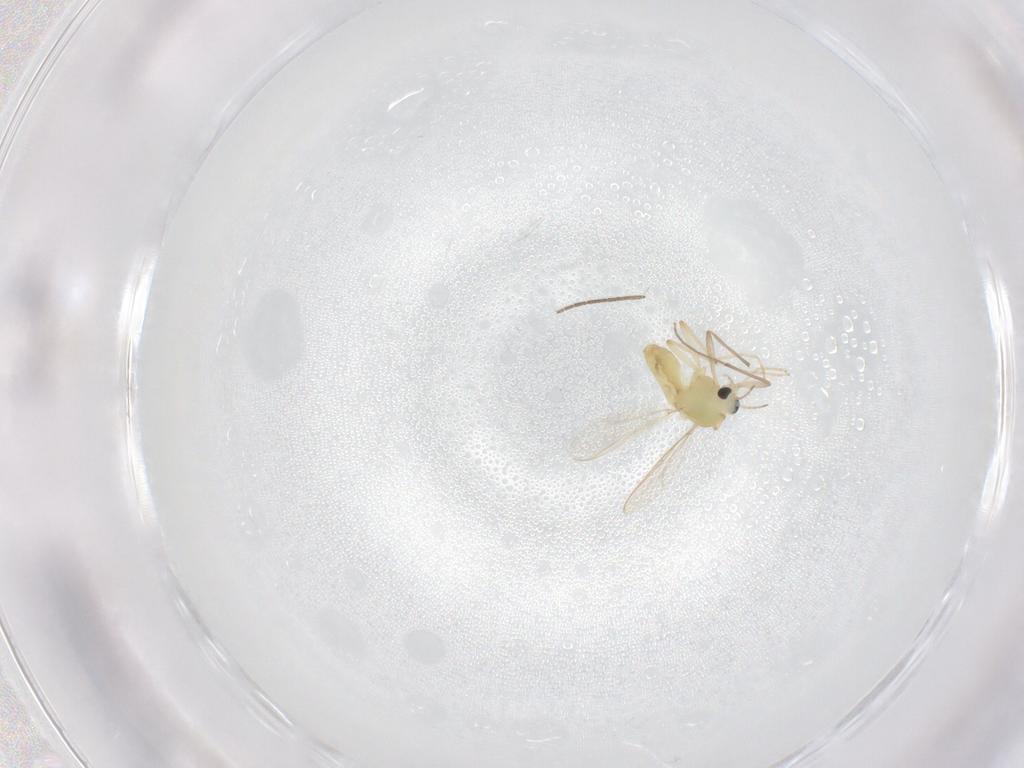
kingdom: Animalia
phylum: Arthropoda
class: Insecta
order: Diptera
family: Chironomidae
